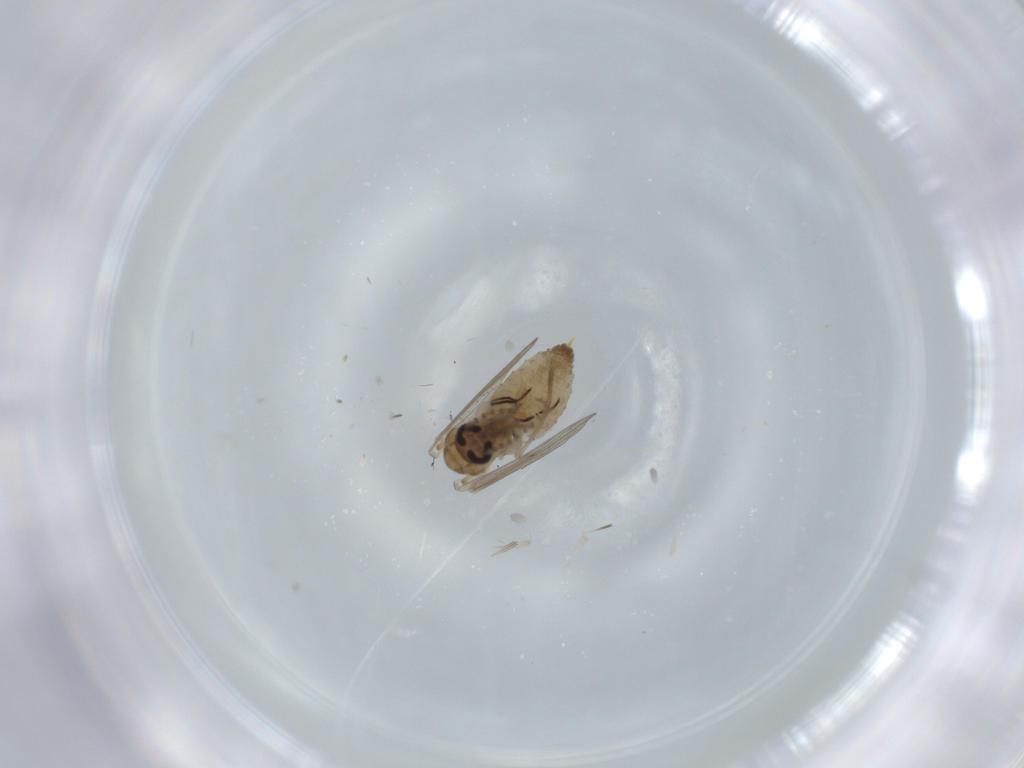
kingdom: Animalia
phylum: Arthropoda
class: Insecta
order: Diptera
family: Psychodidae
